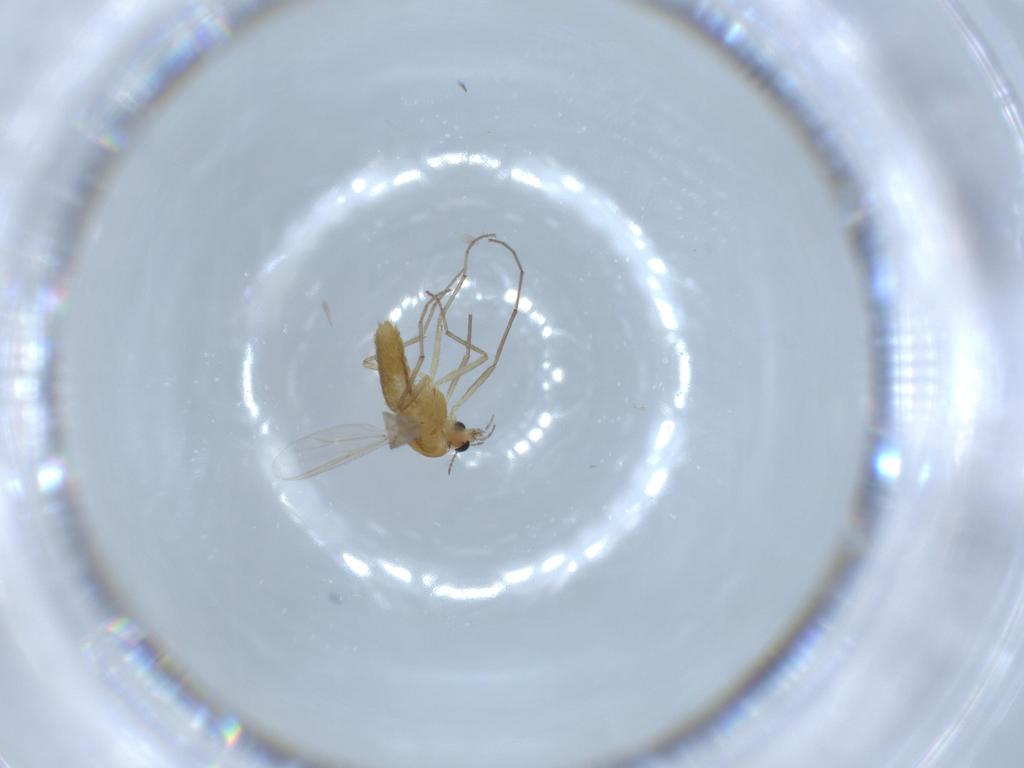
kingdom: Animalia
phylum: Arthropoda
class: Insecta
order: Diptera
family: Chironomidae
